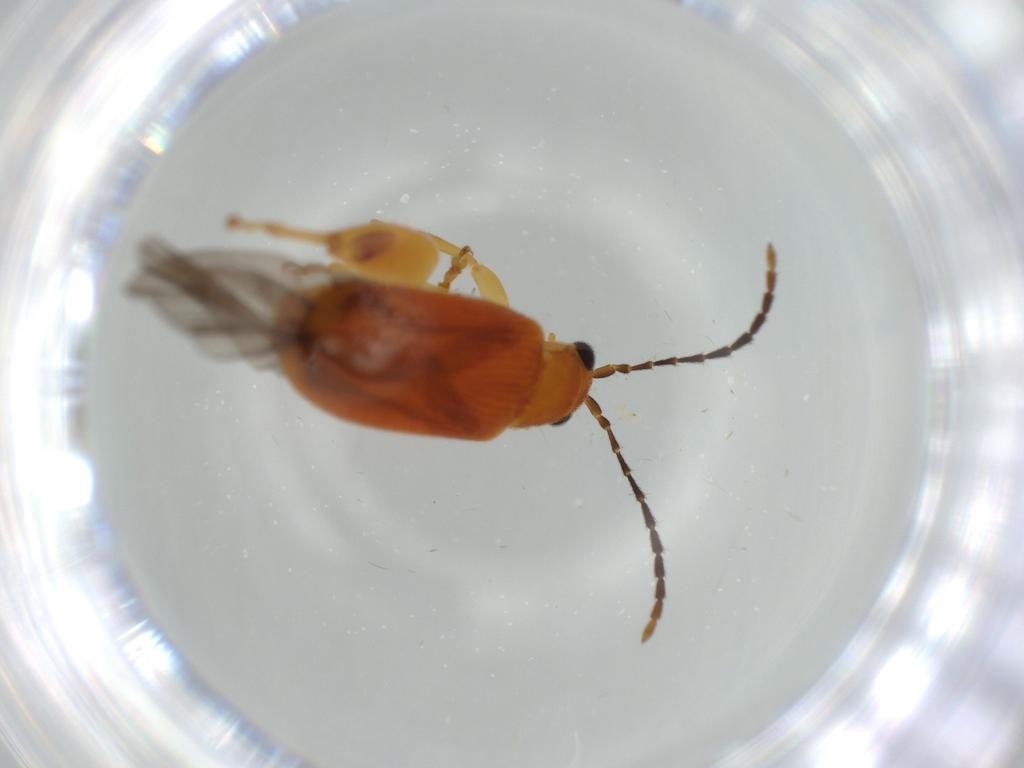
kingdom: Animalia
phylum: Arthropoda
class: Insecta
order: Coleoptera
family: Chrysomelidae
